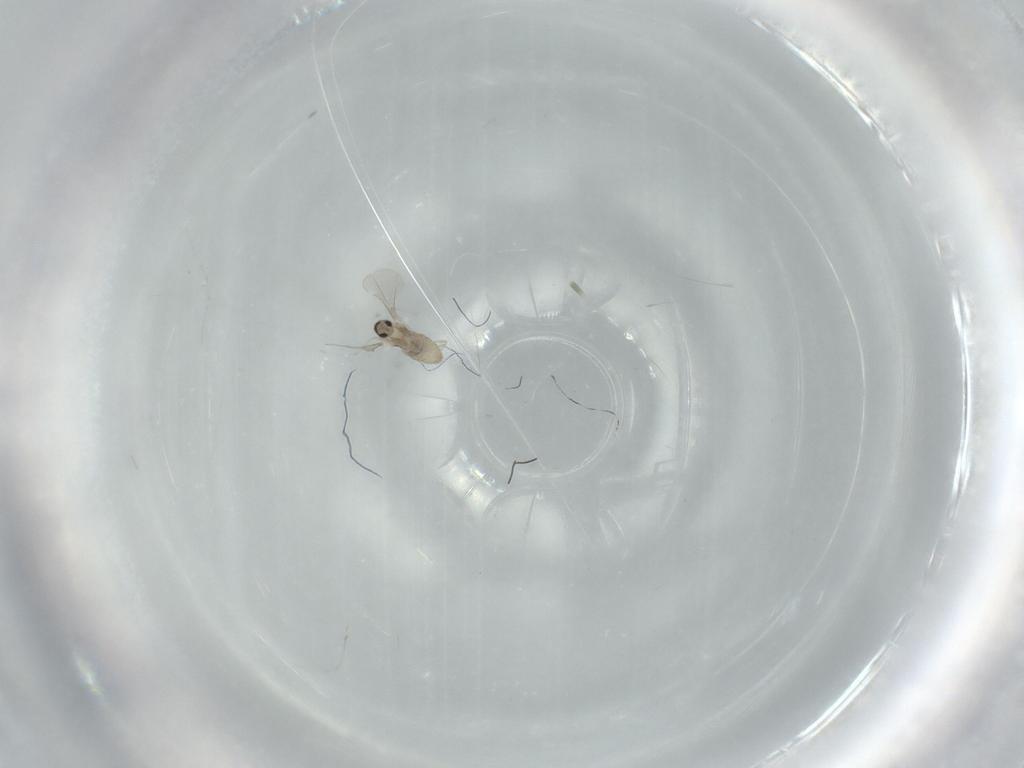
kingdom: Animalia
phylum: Arthropoda
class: Insecta
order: Diptera
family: Cecidomyiidae
